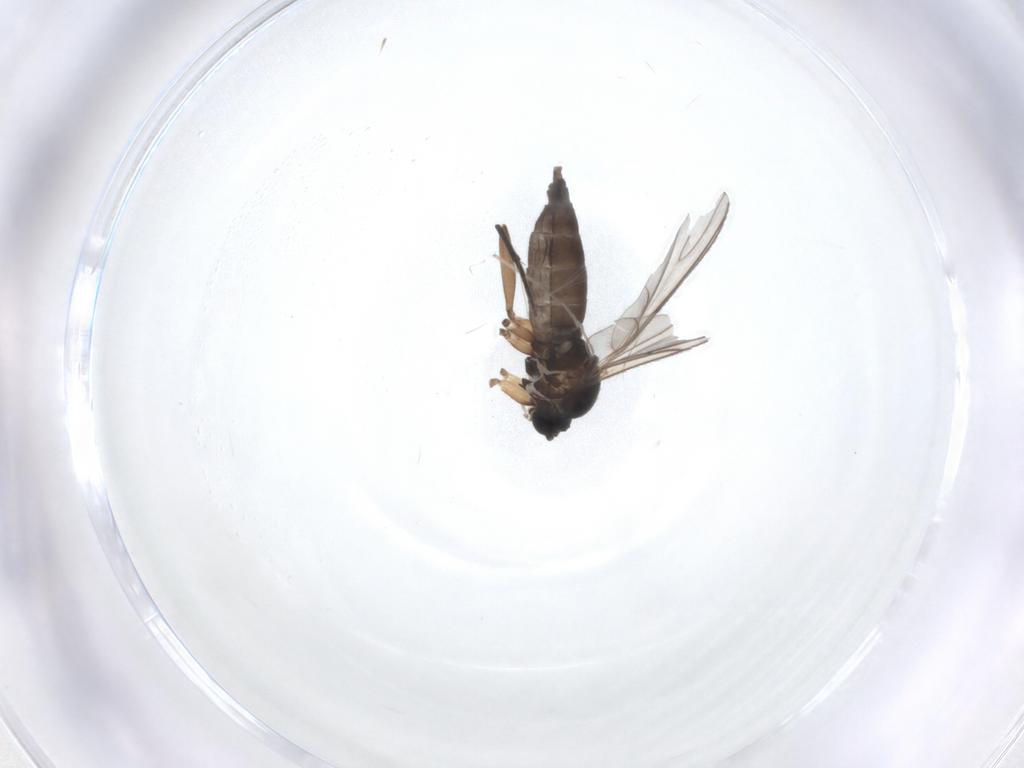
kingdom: Animalia
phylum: Arthropoda
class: Insecta
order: Diptera
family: Sciaridae
